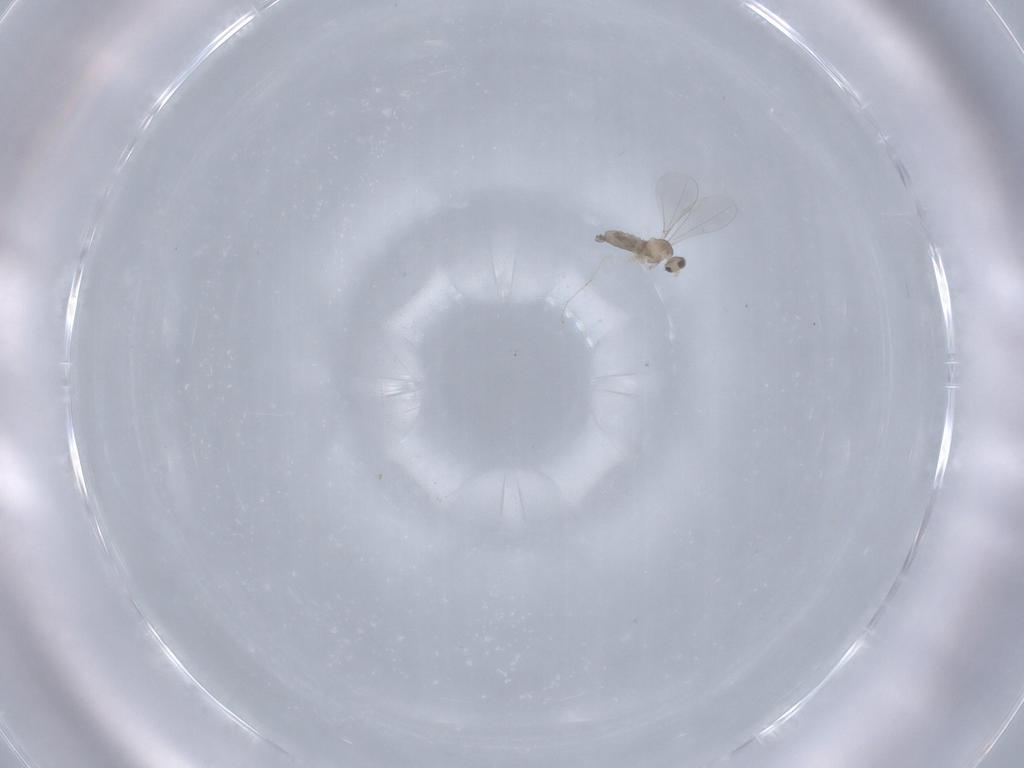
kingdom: Animalia
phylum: Arthropoda
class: Insecta
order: Diptera
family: Cecidomyiidae
